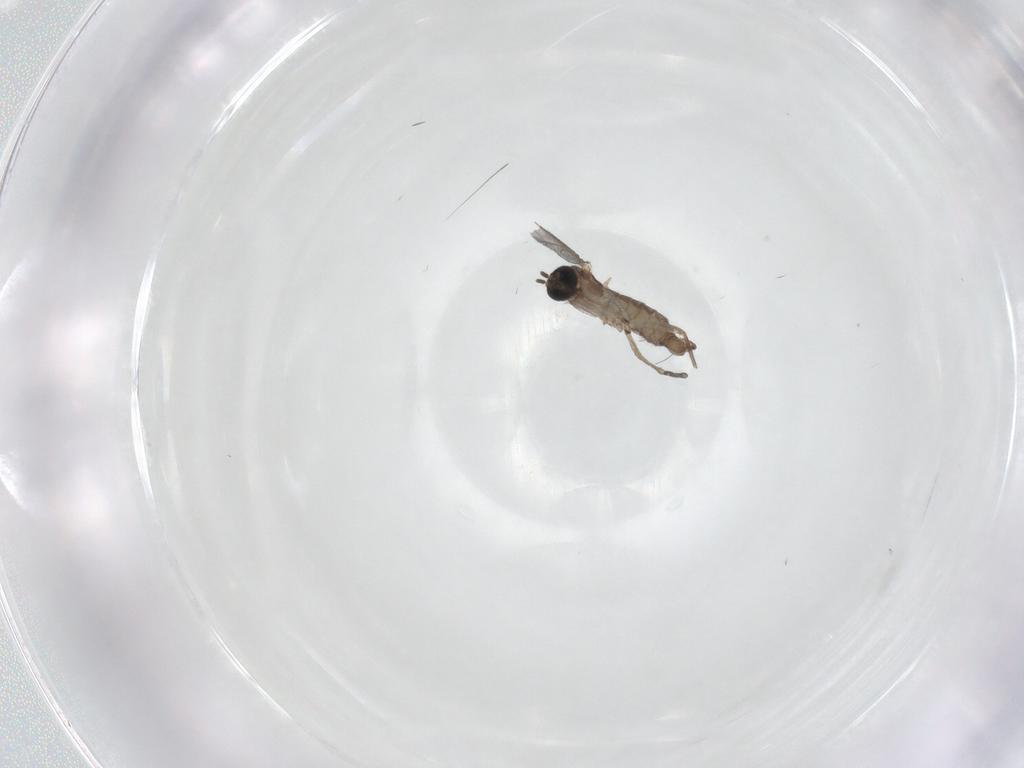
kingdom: Animalia
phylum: Arthropoda
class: Insecta
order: Diptera
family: Sciaridae
